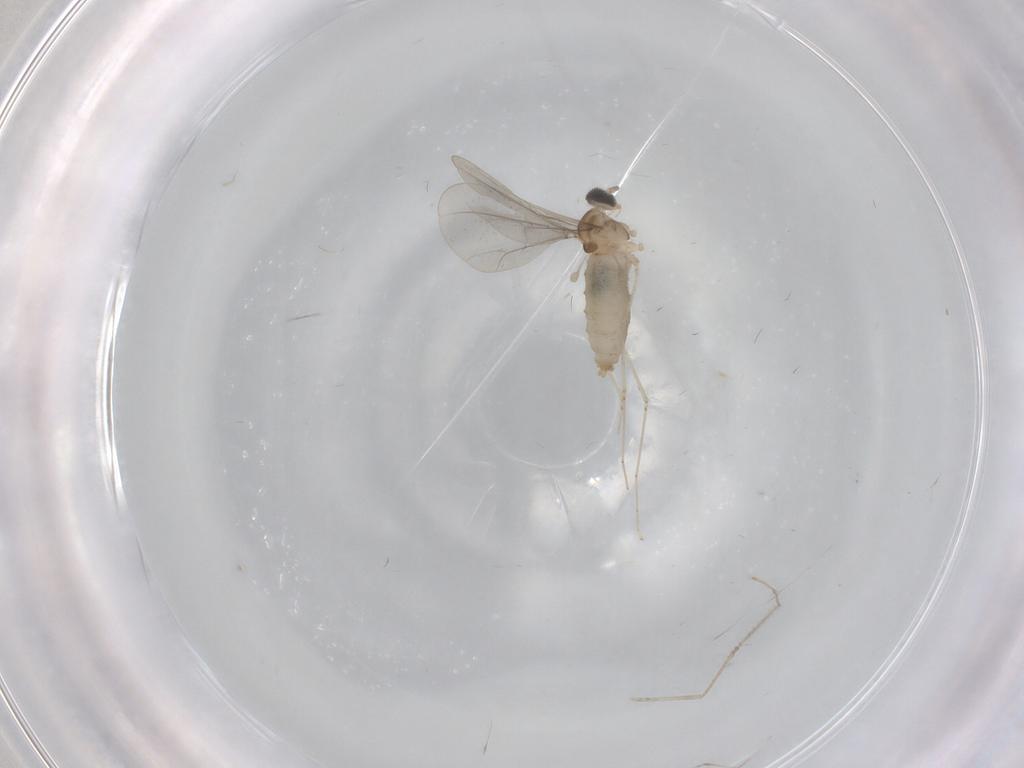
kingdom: Animalia
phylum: Arthropoda
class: Insecta
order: Diptera
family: Cecidomyiidae
